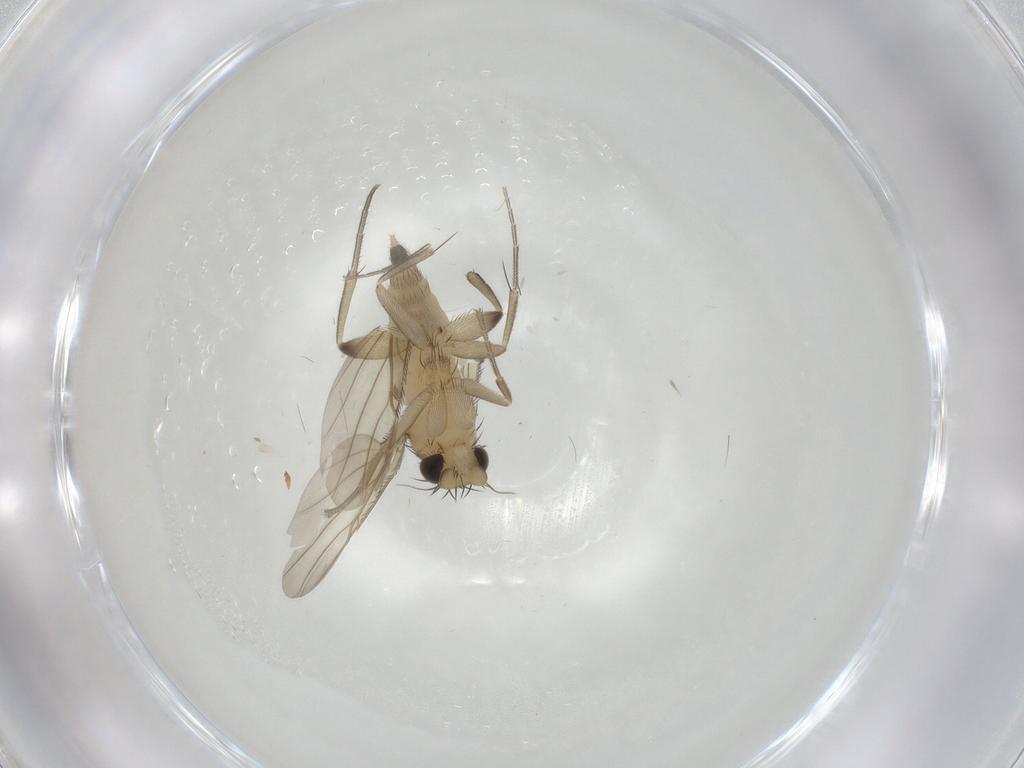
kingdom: Animalia
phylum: Arthropoda
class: Insecta
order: Diptera
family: Phoridae
